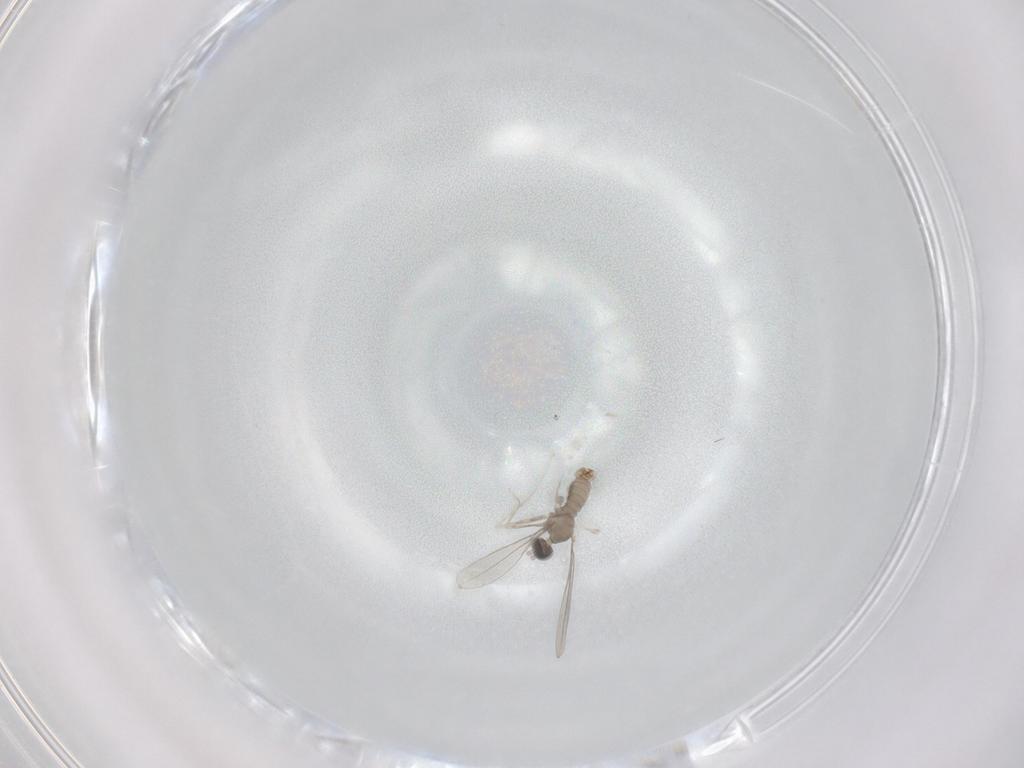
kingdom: Animalia
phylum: Arthropoda
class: Insecta
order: Diptera
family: Cecidomyiidae
